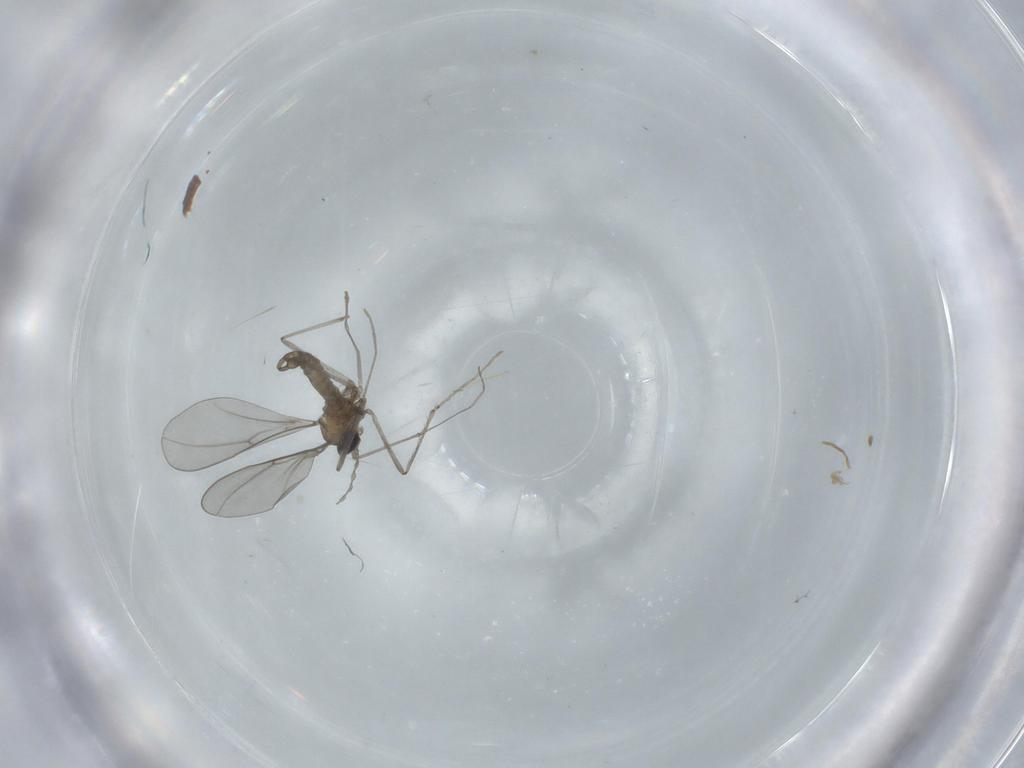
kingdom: Animalia
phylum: Arthropoda
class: Insecta
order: Diptera
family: Cecidomyiidae
